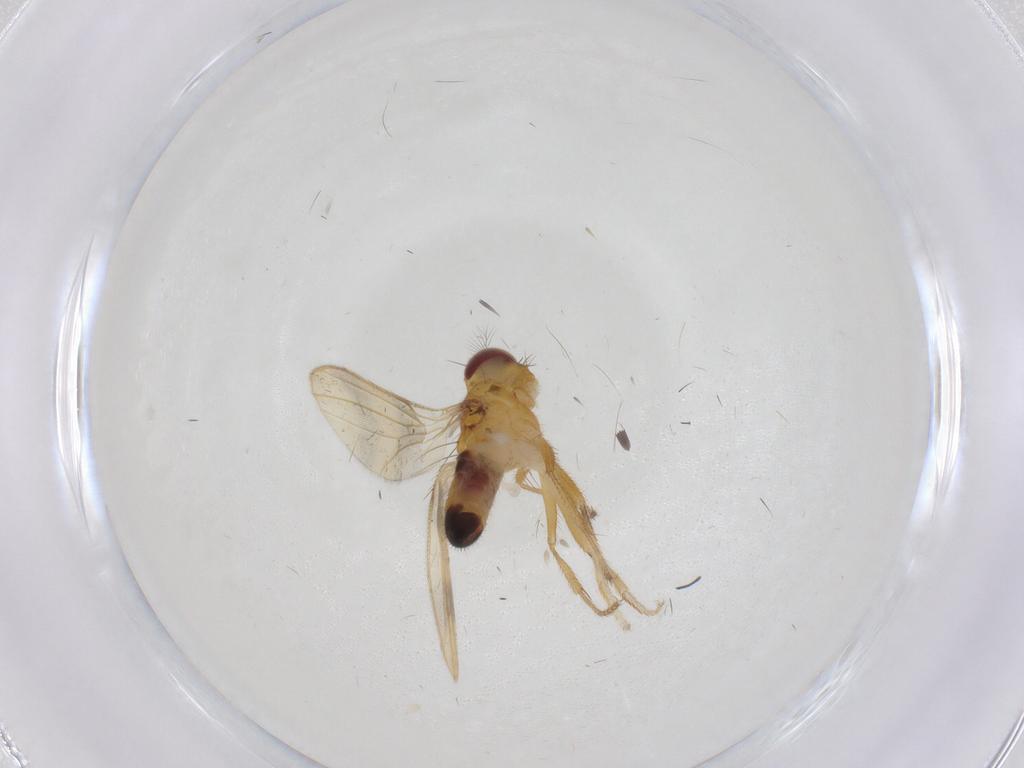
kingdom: Animalia
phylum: Arthropoda
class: Insecta
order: Diptera
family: Periscelididae
